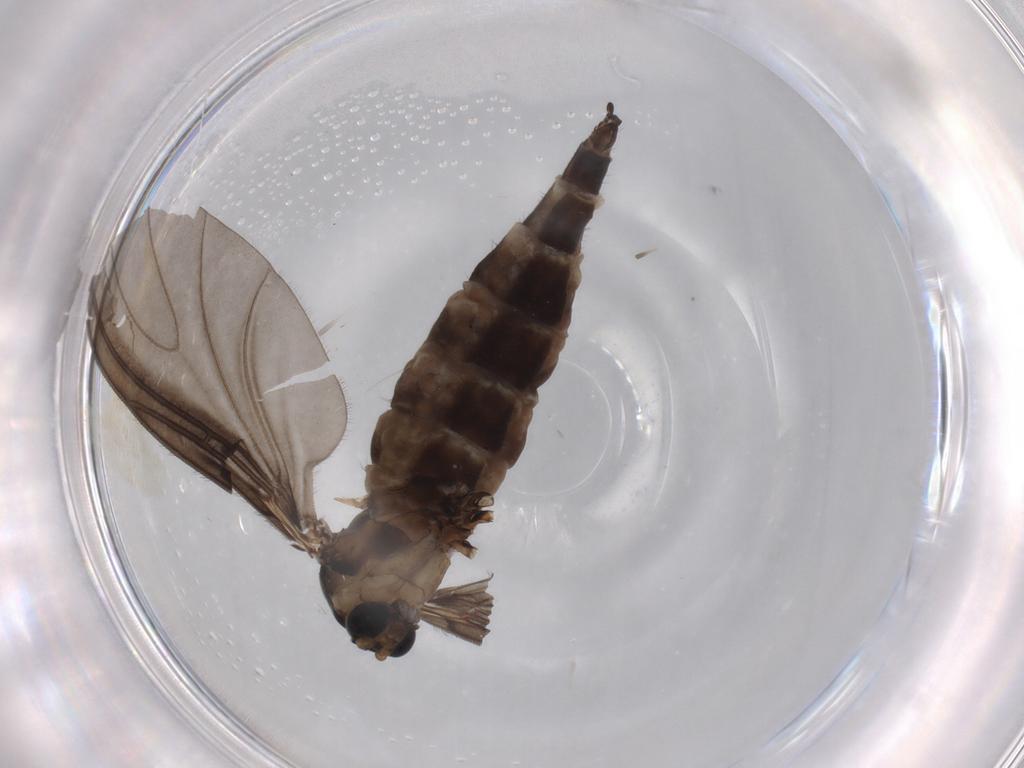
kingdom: Animalia
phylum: Arthropoda
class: Insecta
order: Diptera
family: Sciaridae
